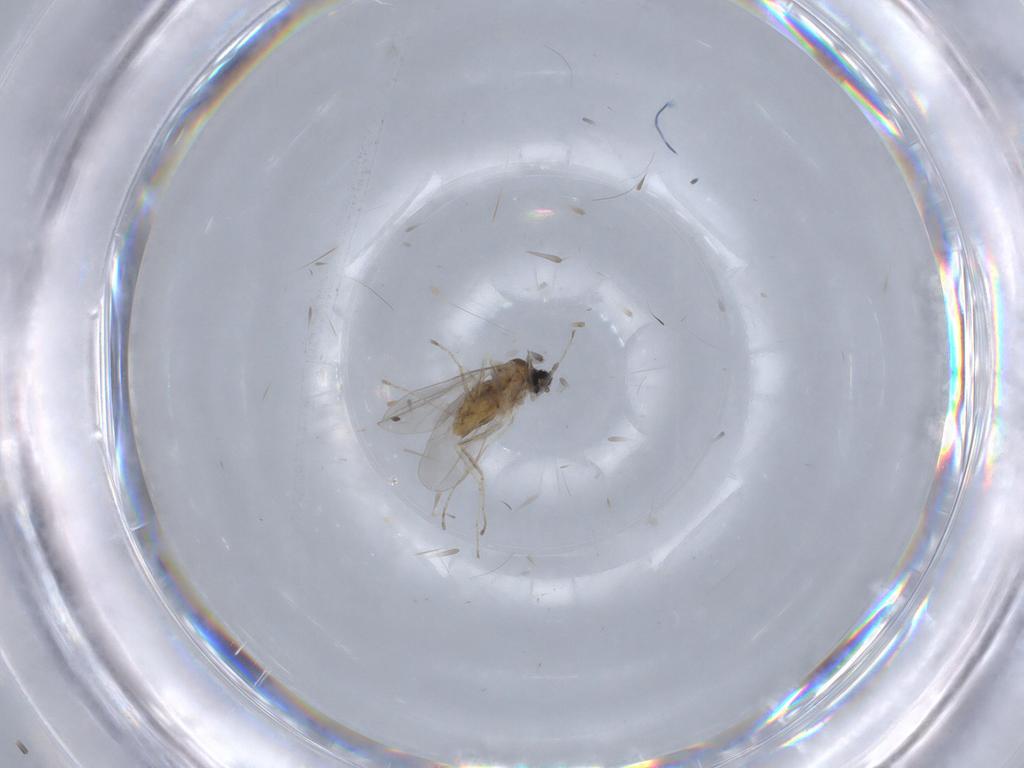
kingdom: Animalia
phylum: Arthropoda
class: Insecta
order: Diptera
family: Cecidomyiidae
